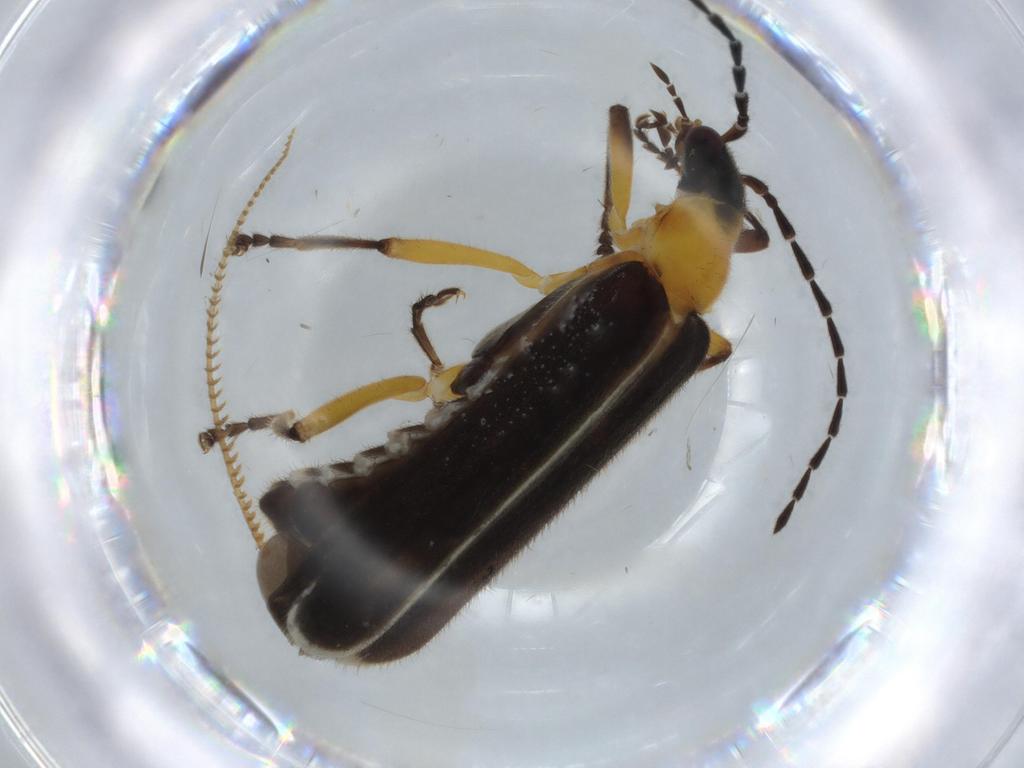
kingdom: Animalia
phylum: Arthropoda
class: Insecta
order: Coleoptera
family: Cantharidae
